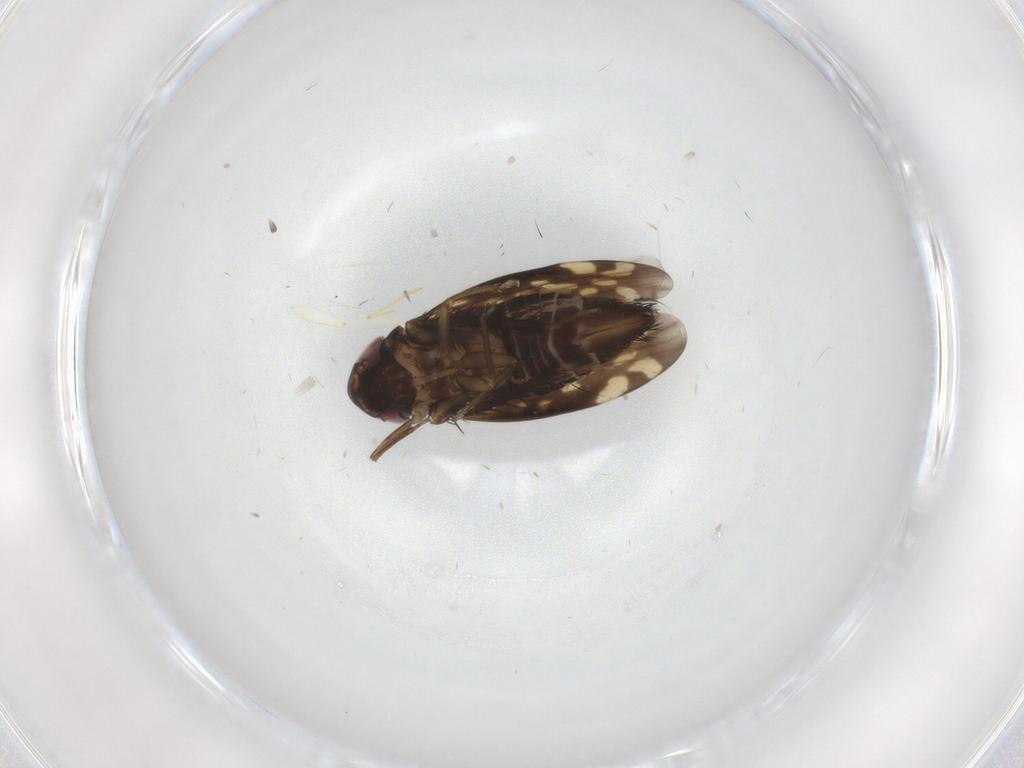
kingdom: Animalia
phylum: Arthropoda
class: Insecta
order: Hemiptera
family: Cicadellidae
